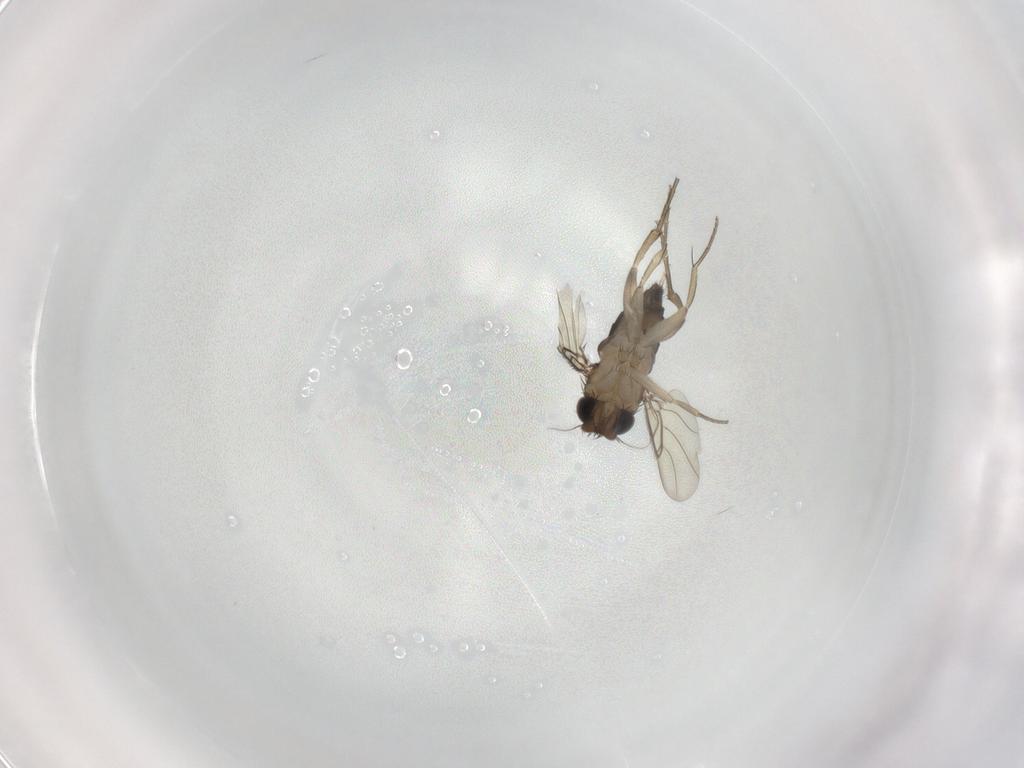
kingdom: Animalia
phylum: Arthropoda
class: Insecta
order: Diptera
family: Phoridae
